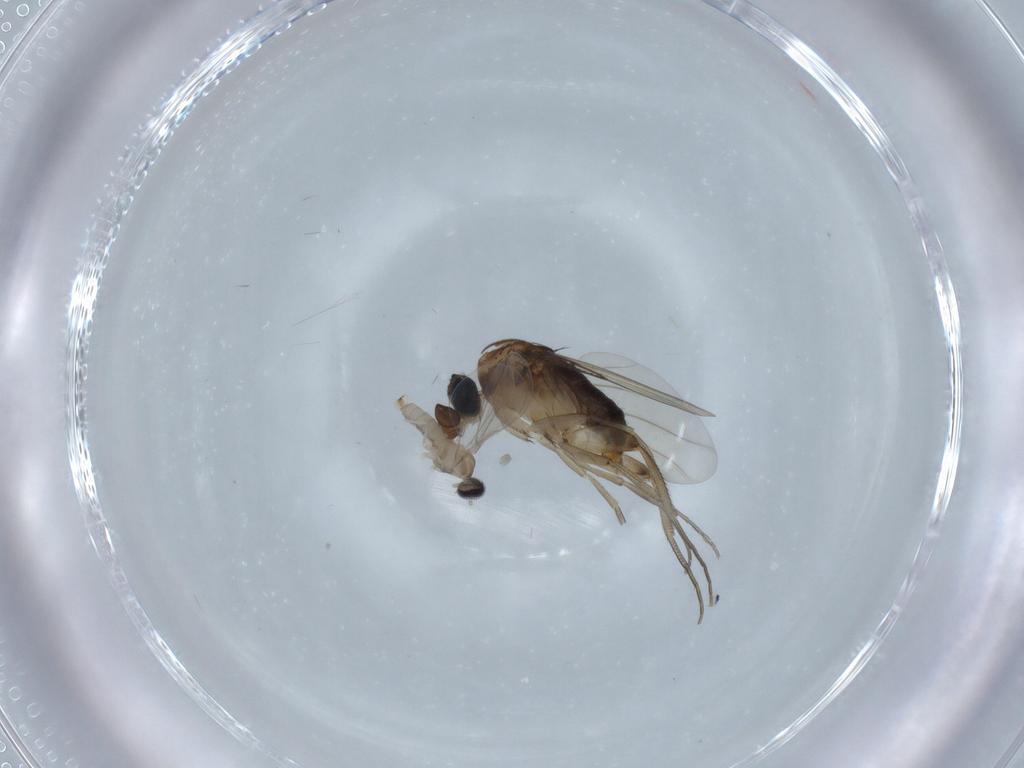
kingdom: Animalia
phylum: Arthropoda
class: Insecta
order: Diptera
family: Phoridae
